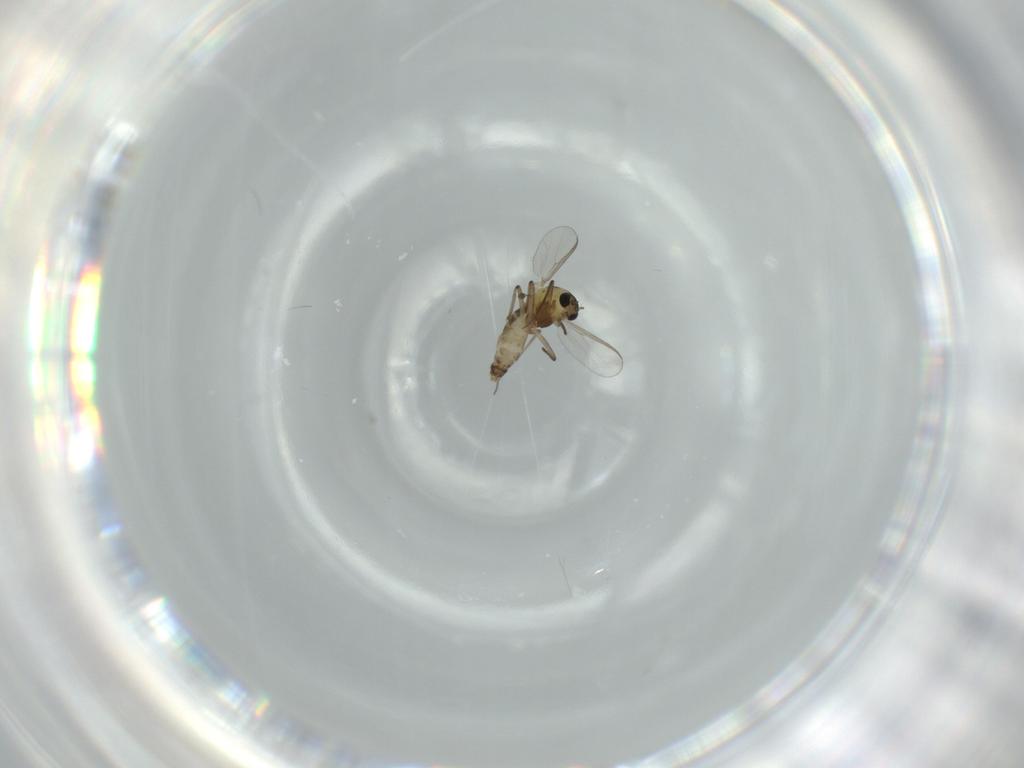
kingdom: Animalia
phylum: Arthropoda
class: Insecta
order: Diptera
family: Chironomidae
